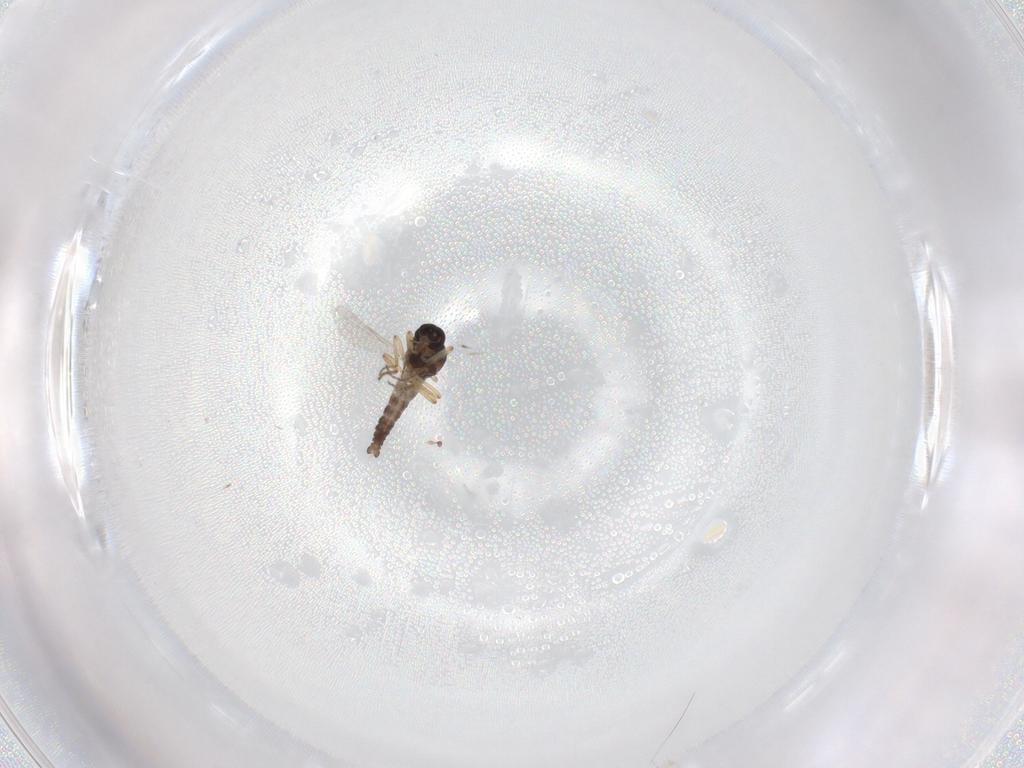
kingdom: Animalia
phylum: Arthropoda
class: Insecta
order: Diptera
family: Ceratopogonidae
